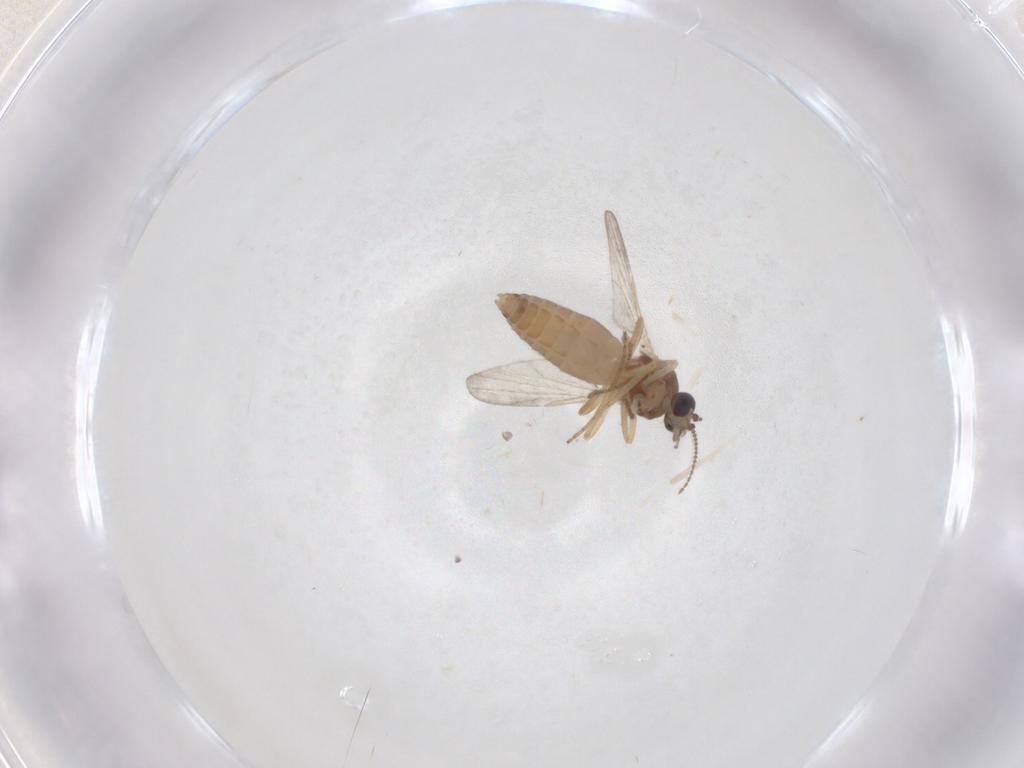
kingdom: Animalia
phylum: Arthropoda
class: Insecta
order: Diptera
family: Ceratopogonidae
